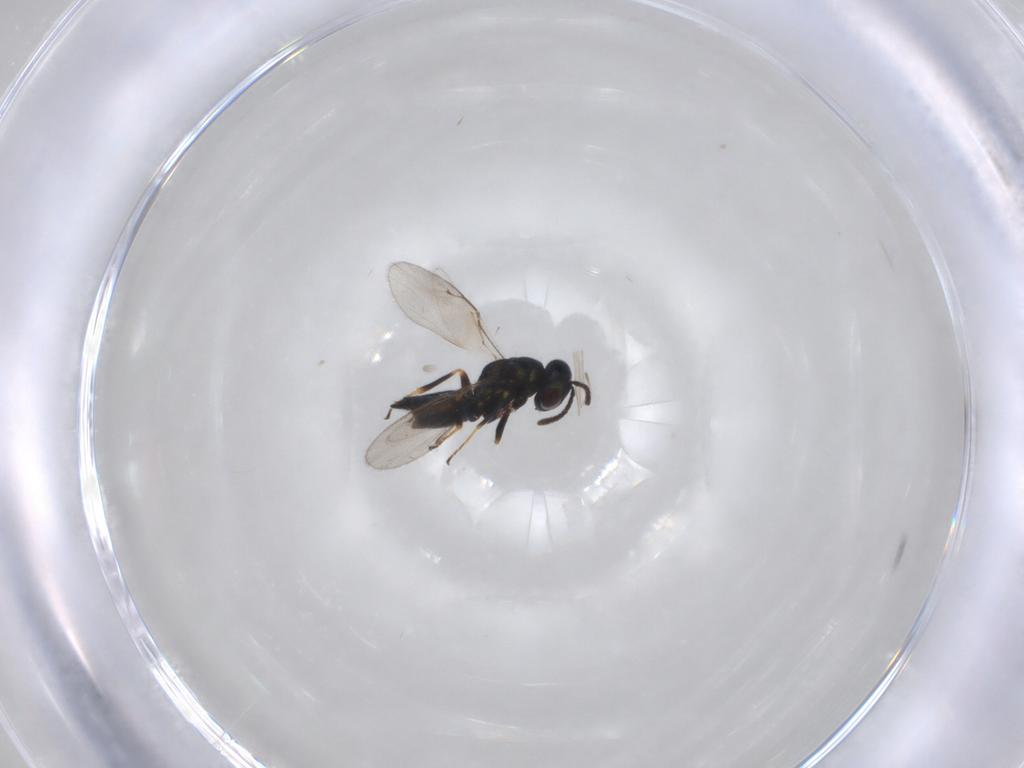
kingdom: Animalia
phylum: Arthropoda
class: Insecta
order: Hymenoptera
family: Pteromalidae
